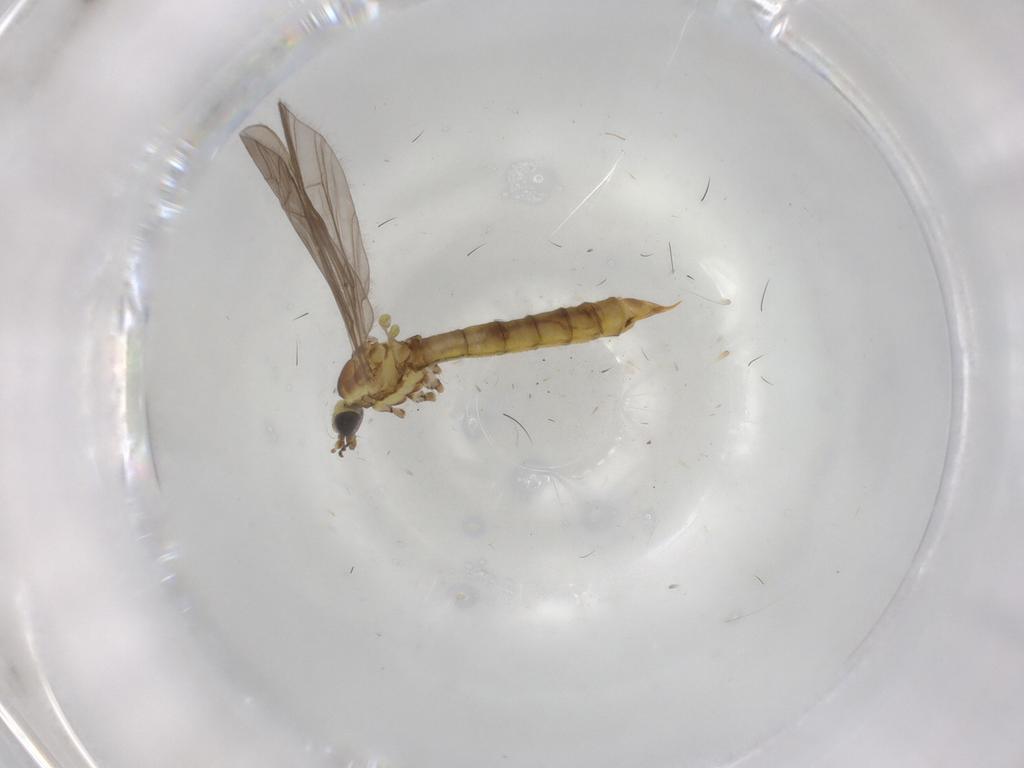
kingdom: Animalia
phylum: Arthropoda
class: Insecta
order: Diptera
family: Limoniidae
